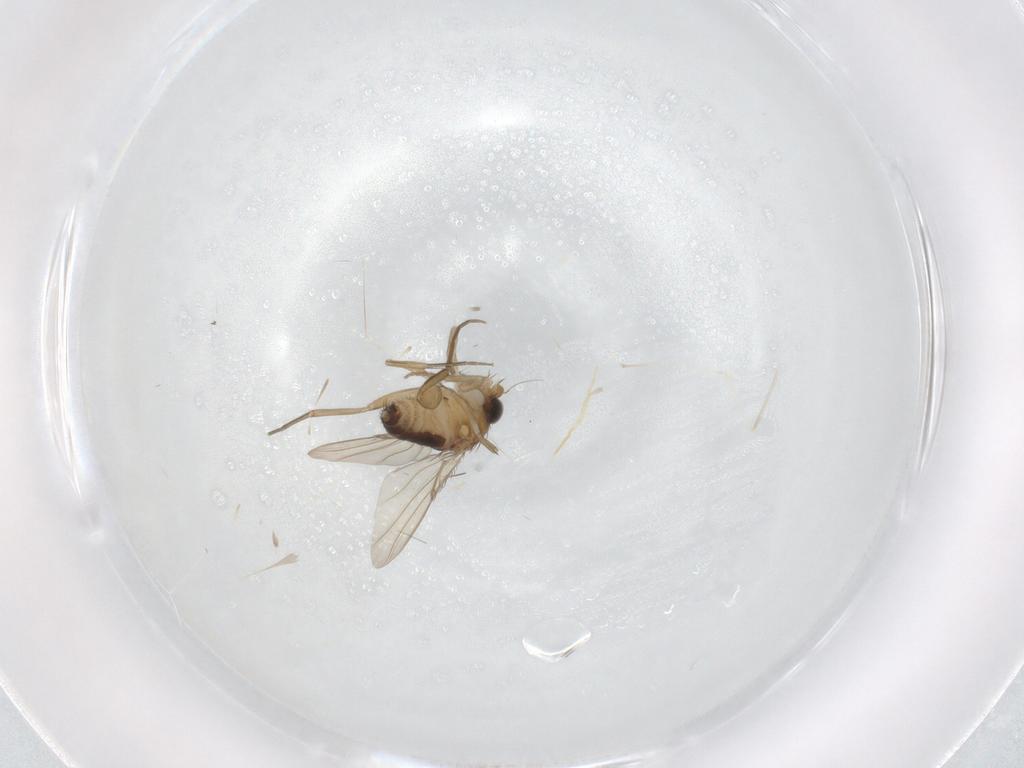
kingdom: Animalia
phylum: Arthropoda
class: Insecta
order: Diptera
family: Phoridae
